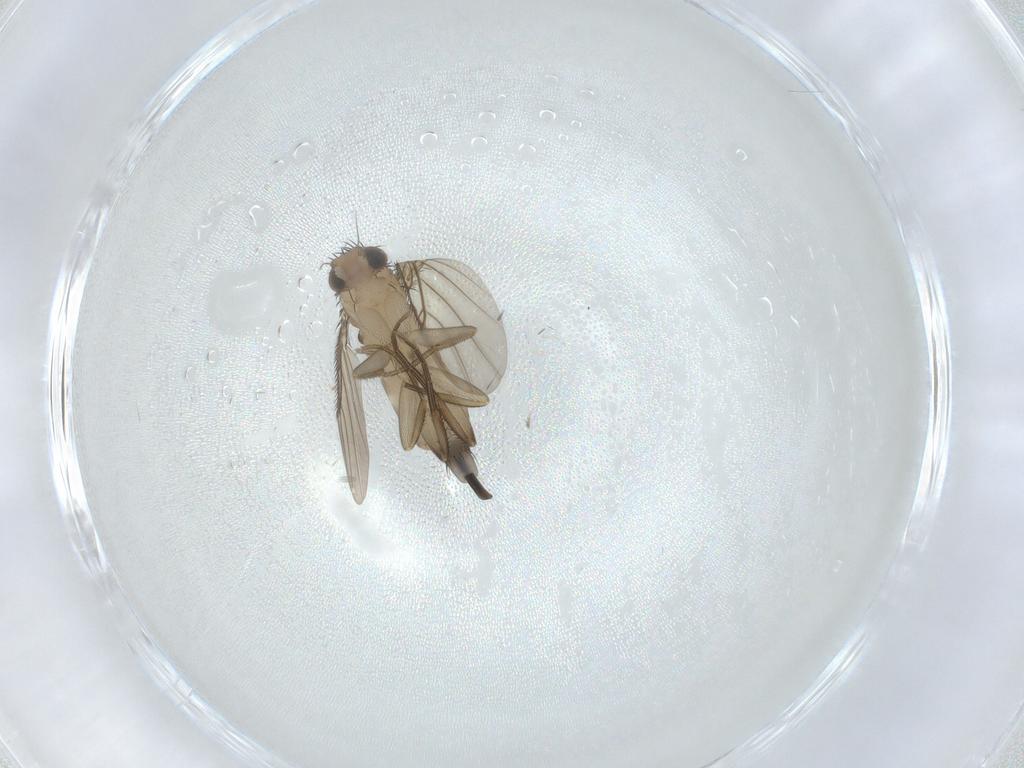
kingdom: Animalia
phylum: Arthropoda
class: Insecta
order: Diptera
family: Phoridae
